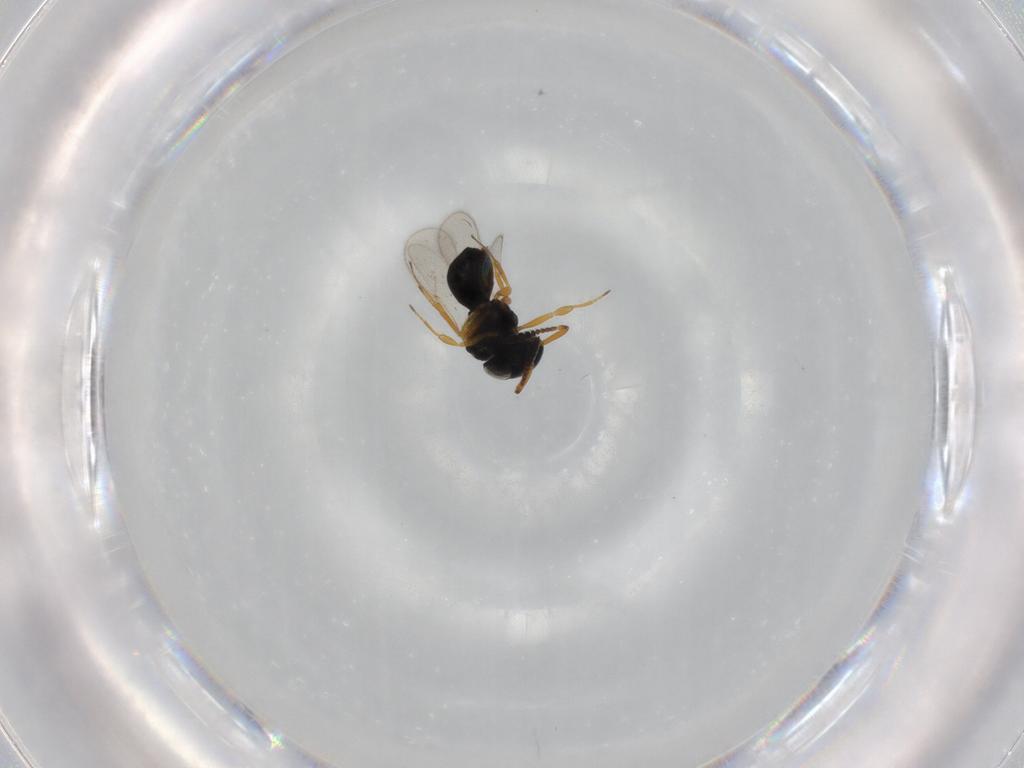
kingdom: Animalia
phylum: Arthropoda
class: Insecta
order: Hymenoptera
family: Scelionidae
